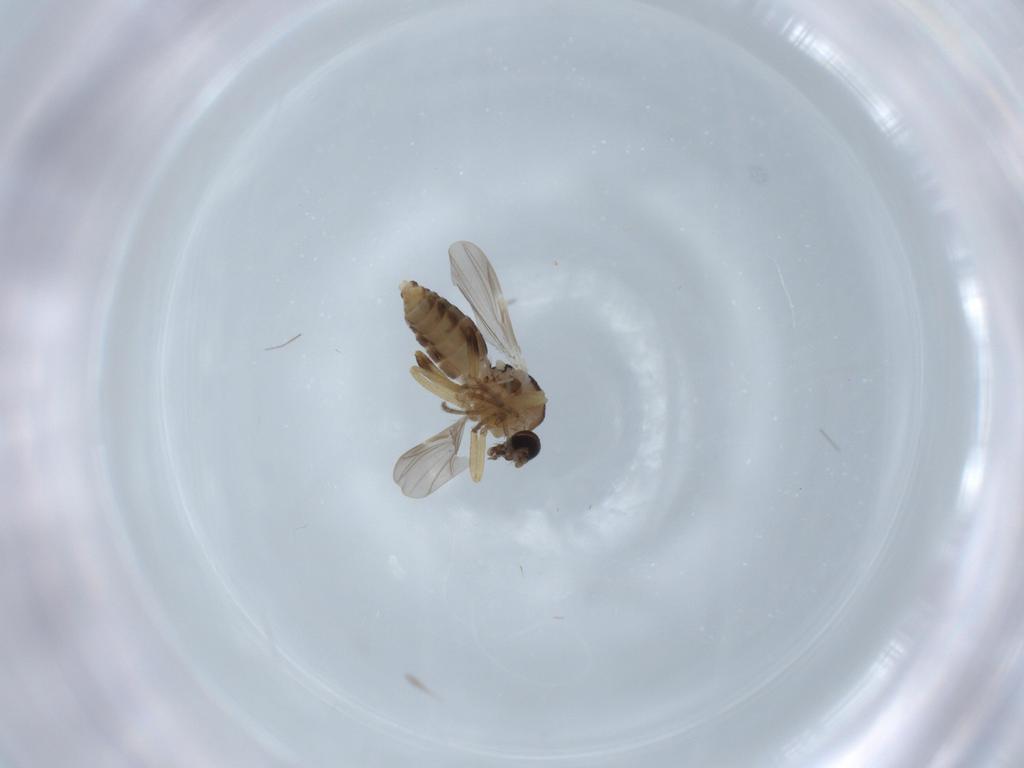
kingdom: Animalia
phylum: Arthropoda
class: Insecta
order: Diptera
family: Ceratopogonidae
